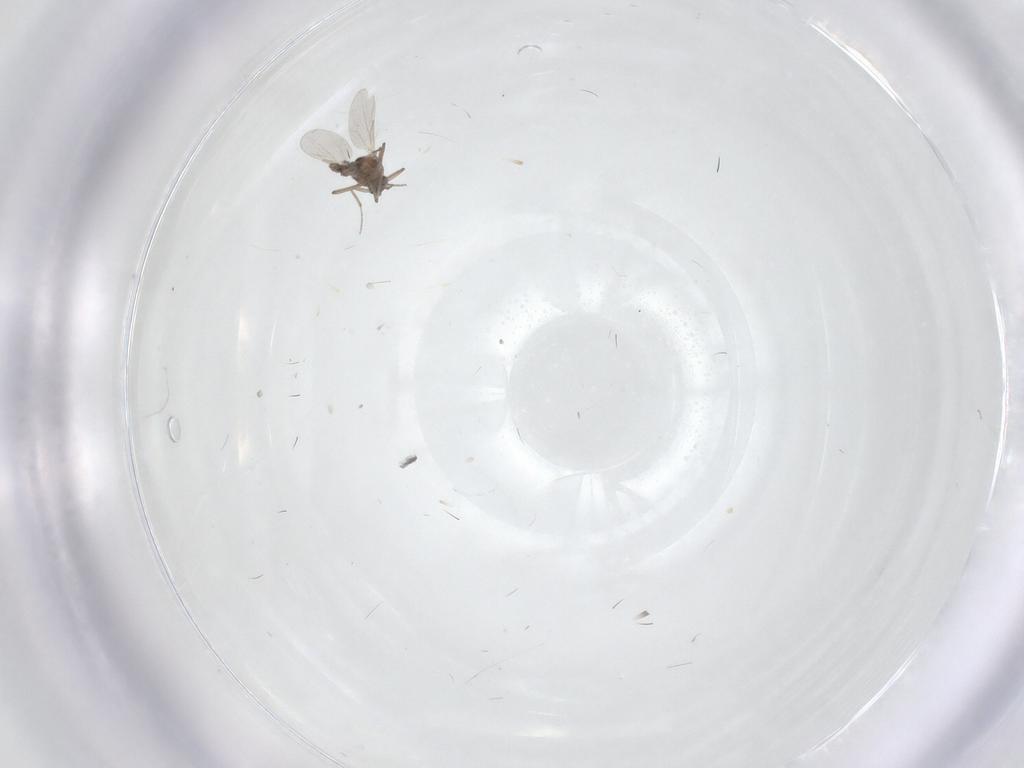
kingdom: Animalia
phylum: Arthropoda
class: Insecta
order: Diptera
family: Ceratopogonidae
